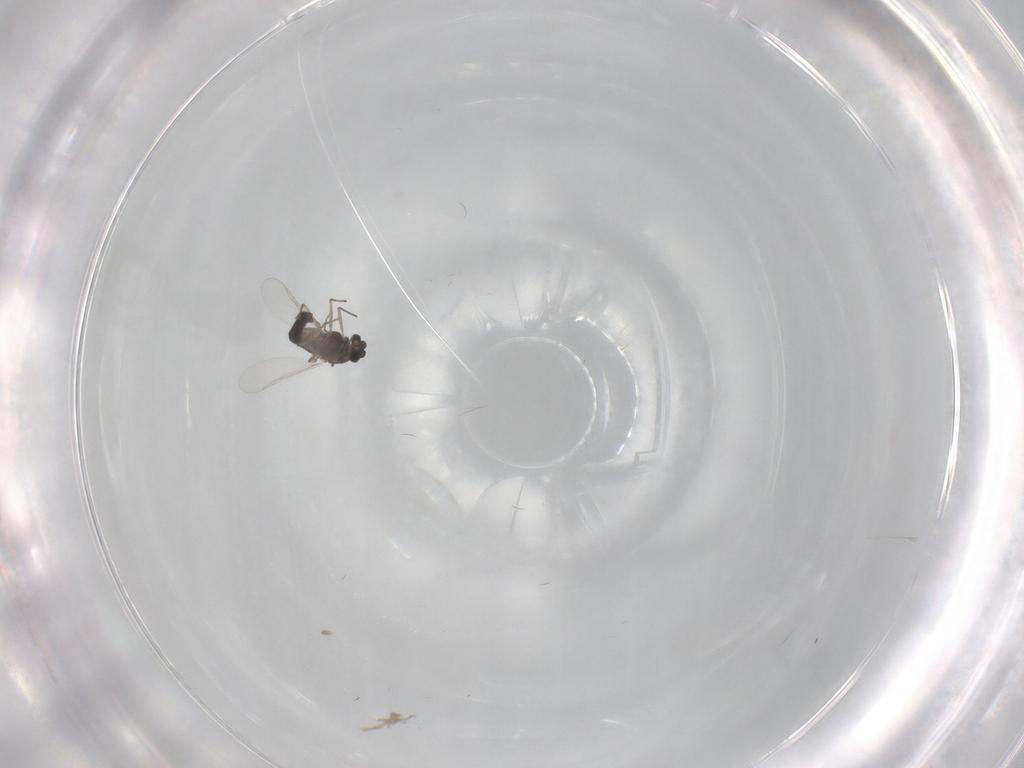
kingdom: Animalia
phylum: Arthropoda
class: Insecta
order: Diptera
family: Chironomidae
